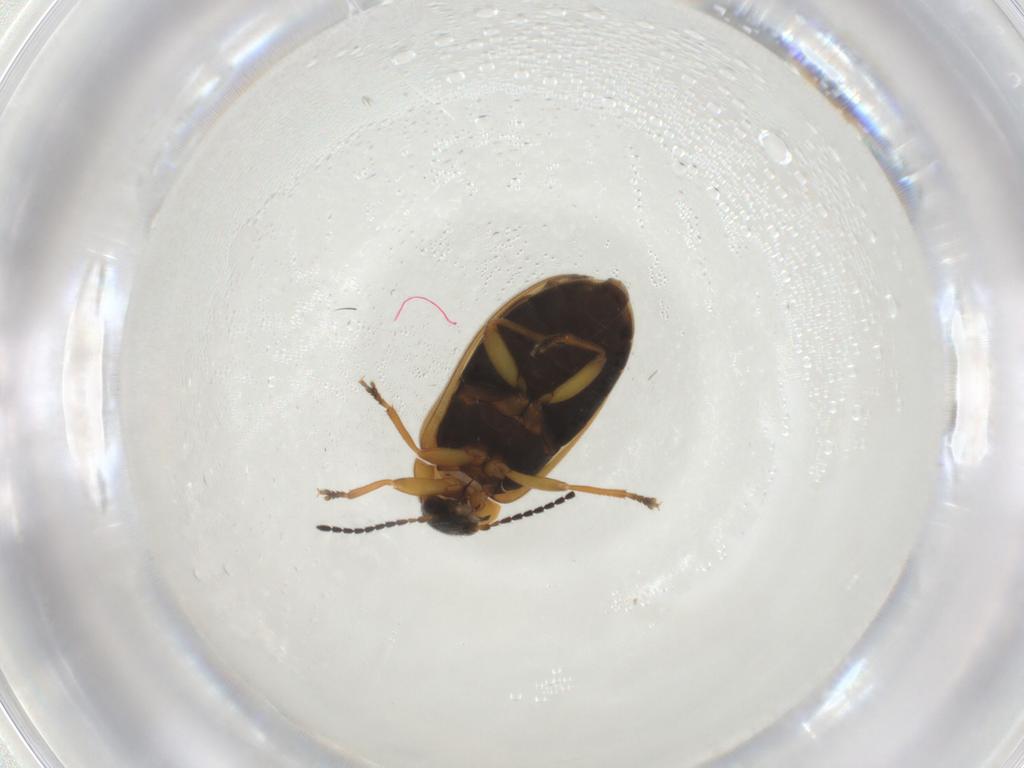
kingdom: Animalia
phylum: Arthropoda
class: Insecta
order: Coleoptera
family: Scirtidae
